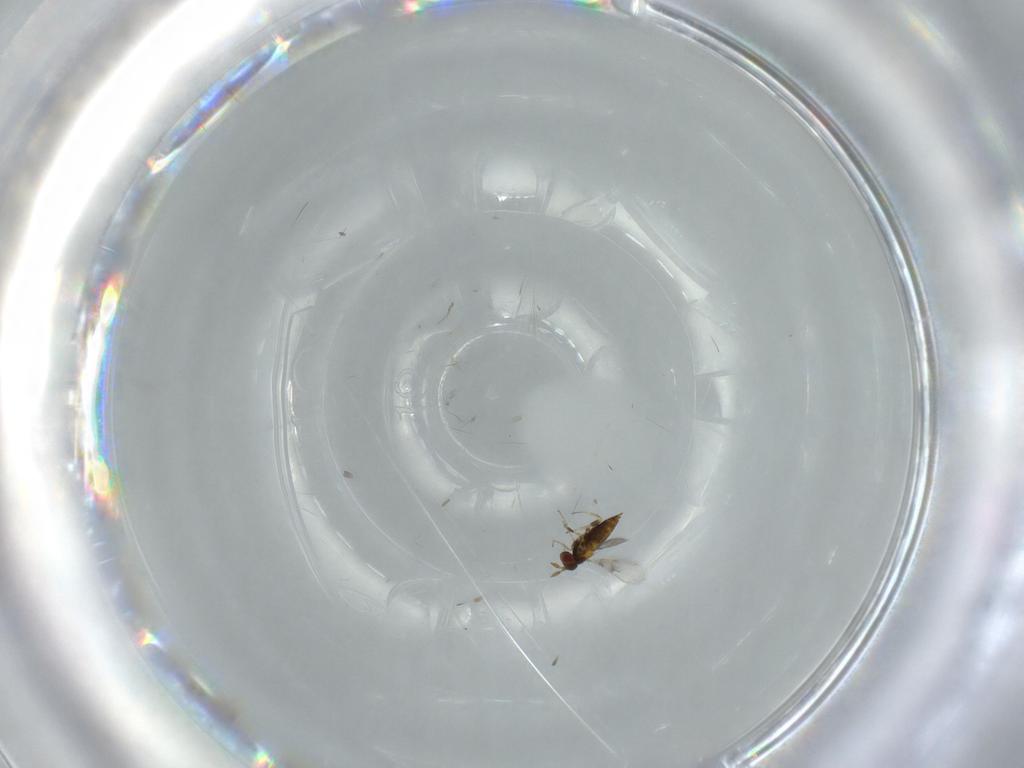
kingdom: Animalia
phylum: Arthropoda
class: Insecta
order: Hymenoptera
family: Trichogrammatidae
